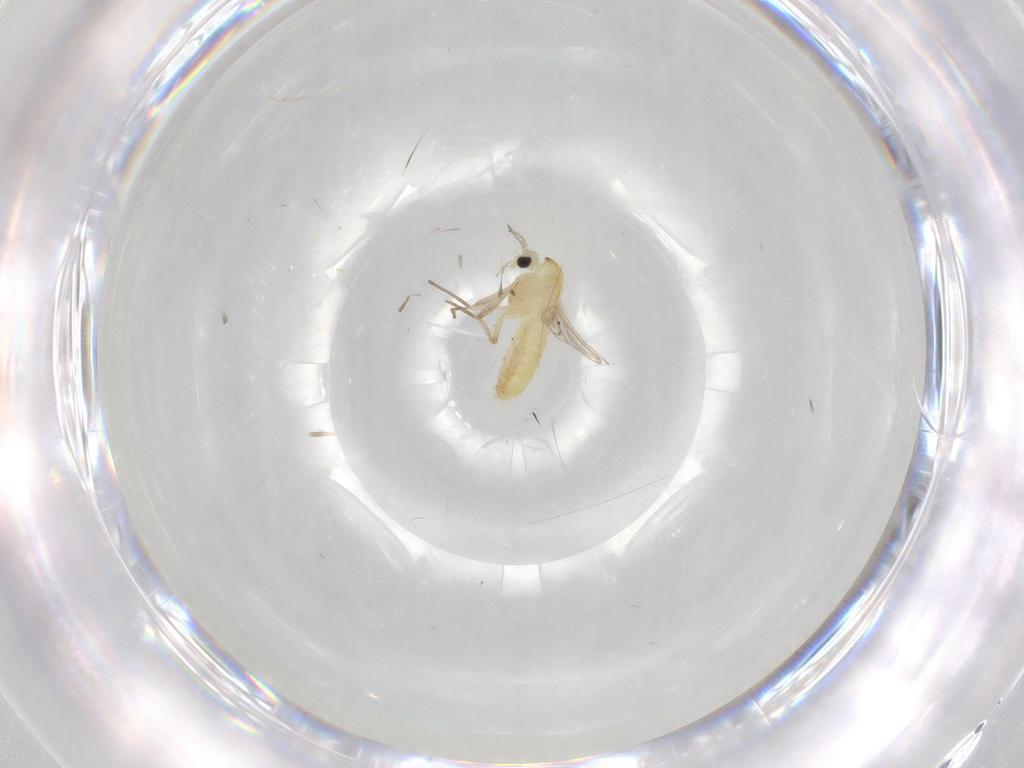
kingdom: Animalia
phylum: Arthropoda
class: Insecta
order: Diptera
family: Chironomidae
